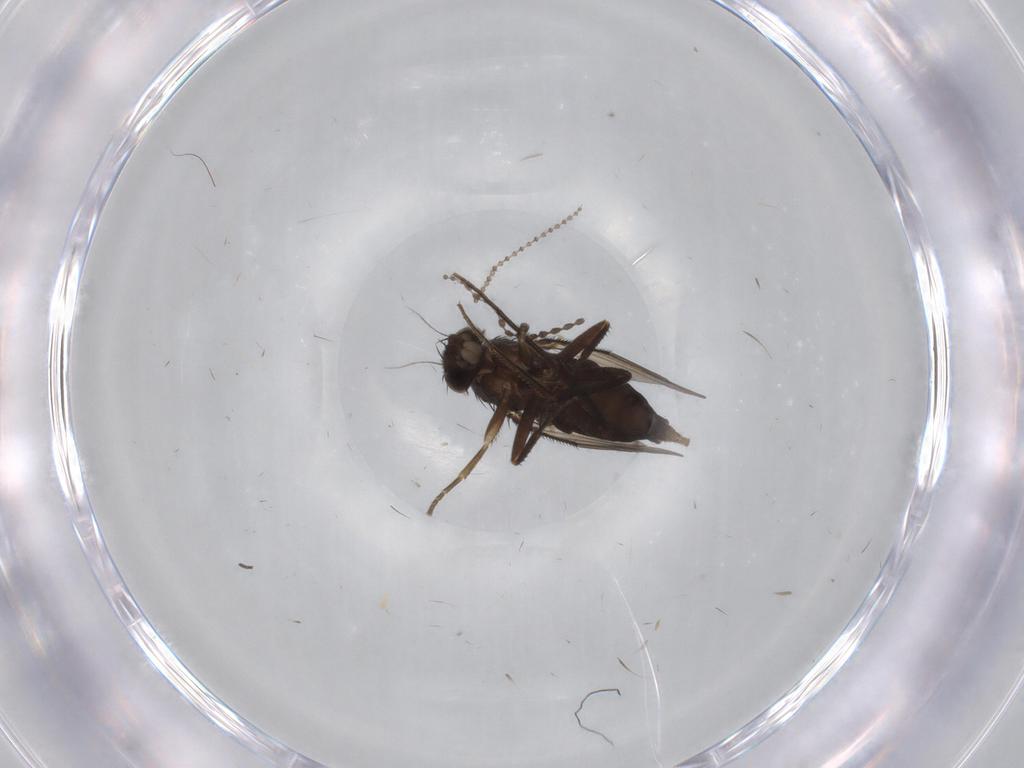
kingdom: Animalia
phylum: Arthropoda
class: Insecta
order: Diptera
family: Phoridae
